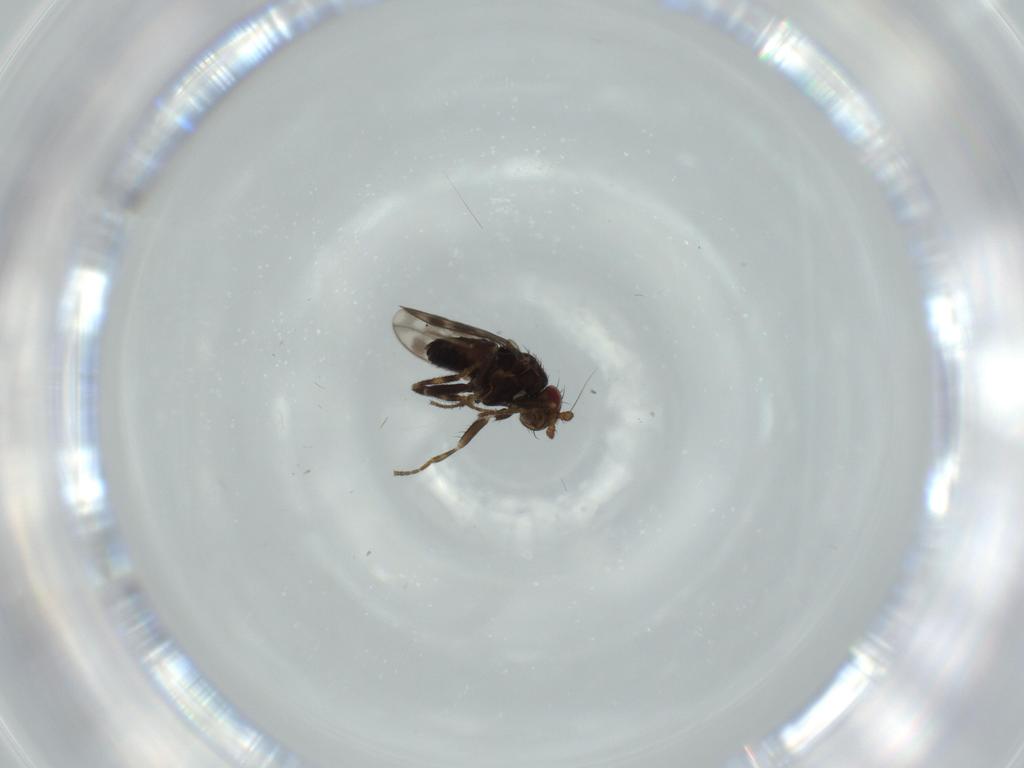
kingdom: Animalia
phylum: Arthropoda
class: Insecta
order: Diptera
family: Sphaeroceridae
